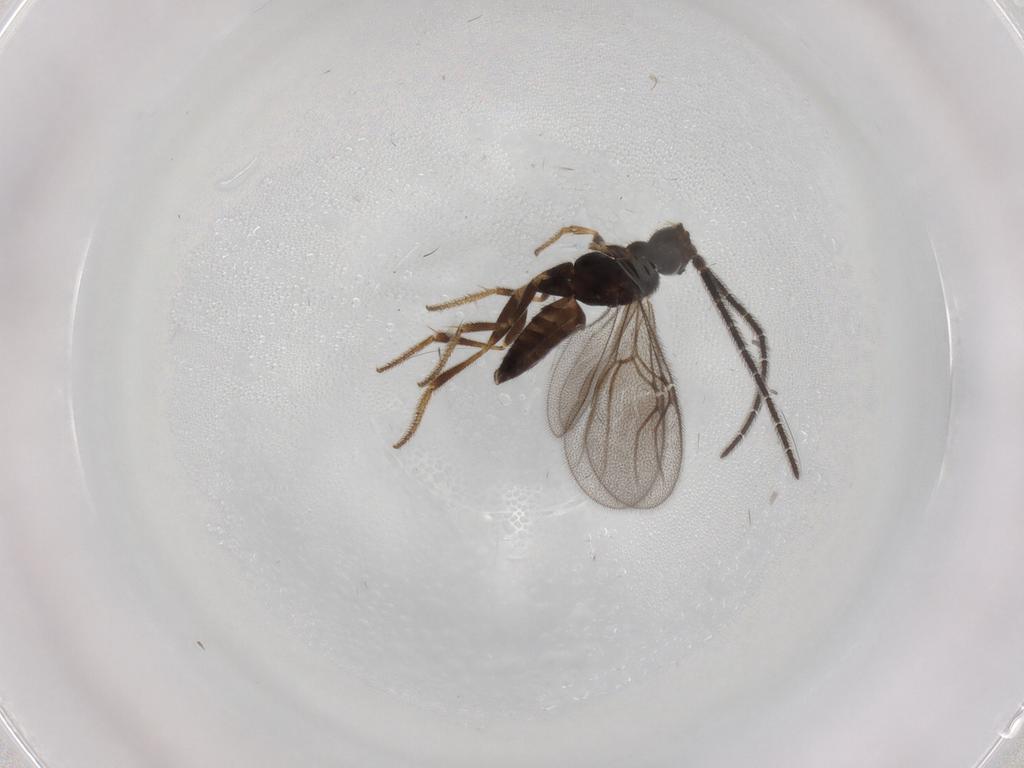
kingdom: Animalia
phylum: Arthropoda
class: Insecta
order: Hymenoptera
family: Dryinidae
